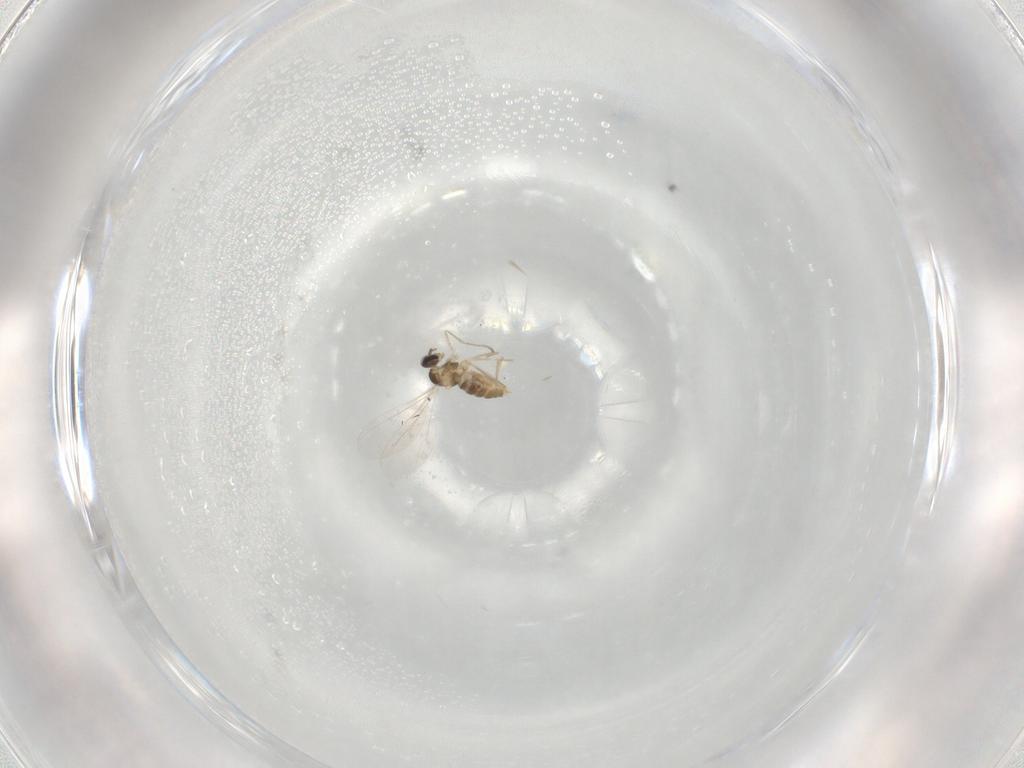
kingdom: Animalia
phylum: Arthropoda
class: Insecta
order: Diptera
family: Cecidomyiidae
